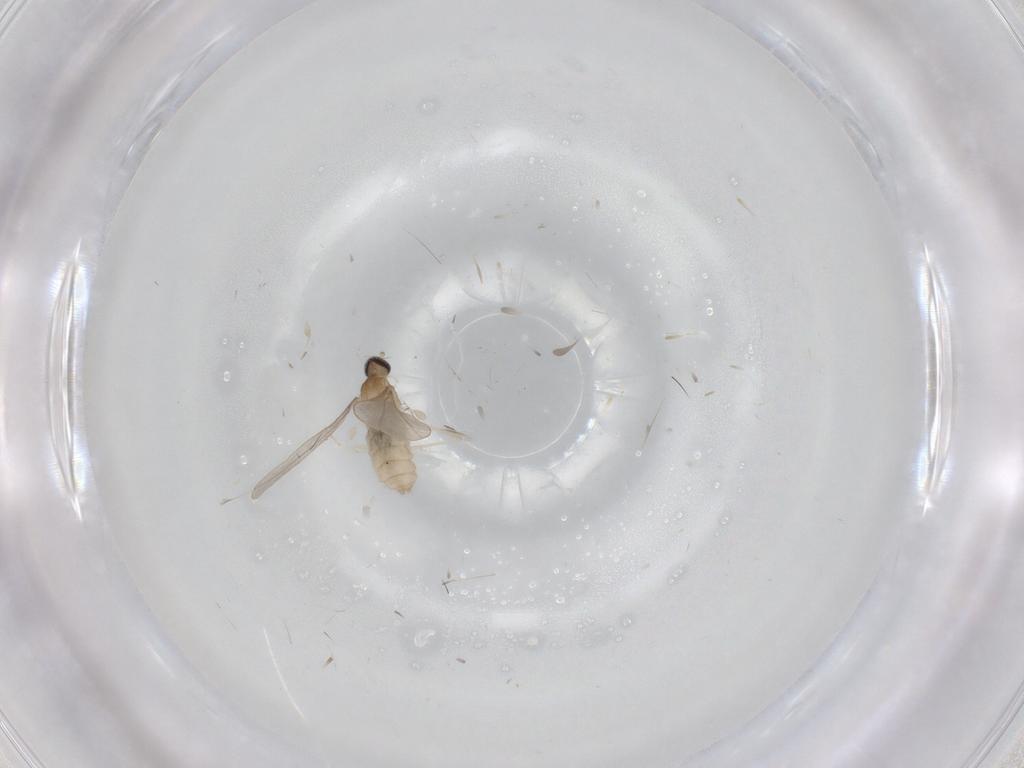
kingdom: Animalia
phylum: Arthropoda
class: Insecta
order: Diptera
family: Cecidomyiidae
